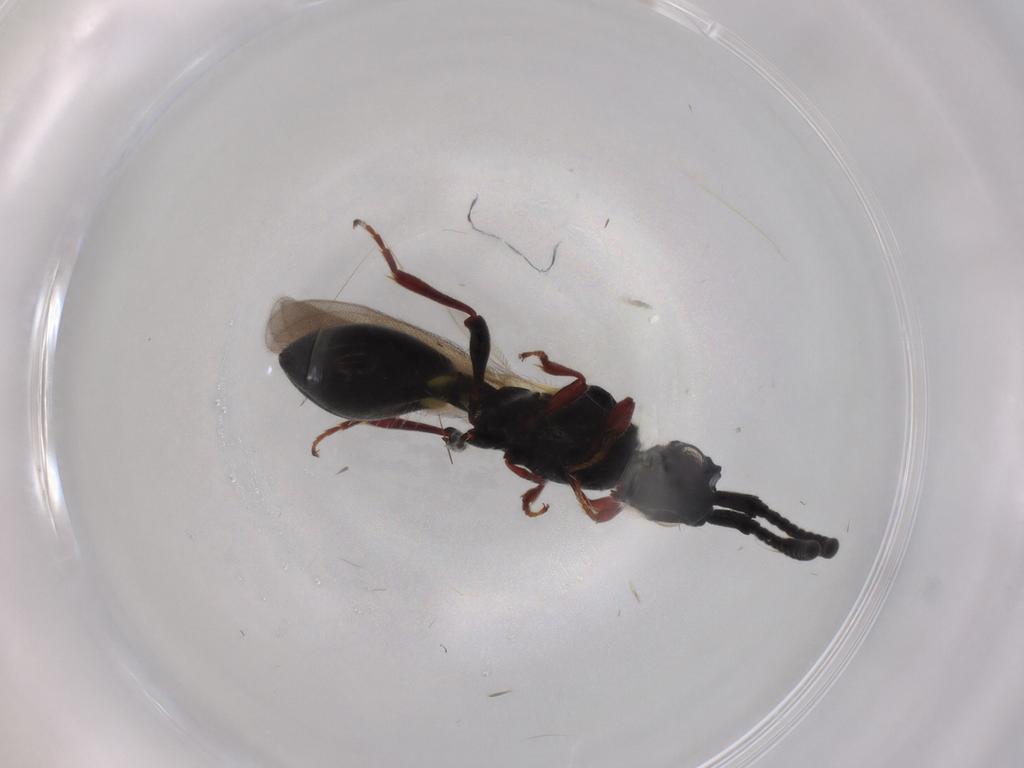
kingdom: Animalia
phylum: Arthropoda
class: Insecta
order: Hymenoptera
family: Diapriidae
